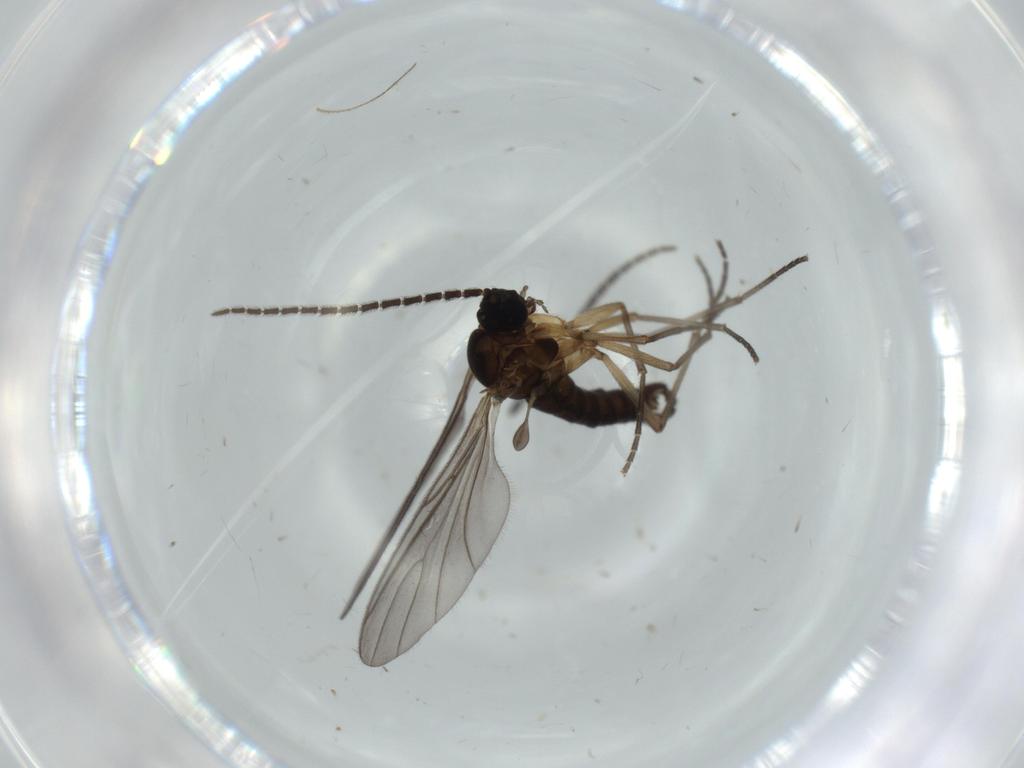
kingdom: Animalia
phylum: Arthropoda
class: Insecta
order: Diptera
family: Sciaridae
